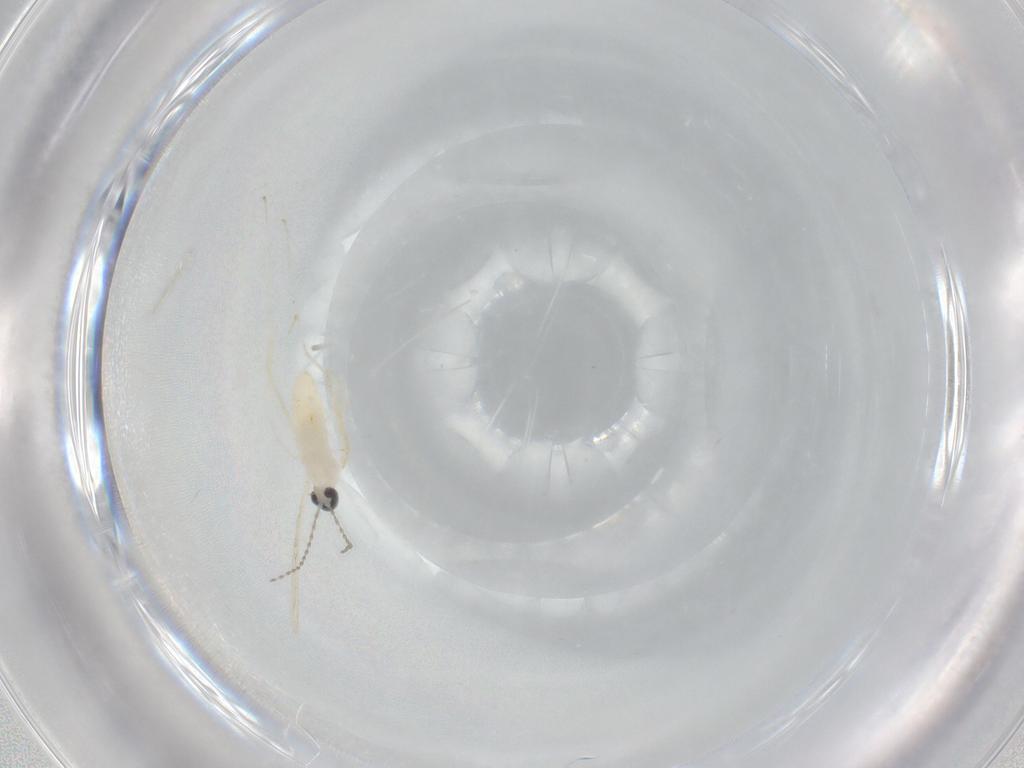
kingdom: Animalia
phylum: Arthropoda
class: Insecta
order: Diptera
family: Cecidomyiidae
